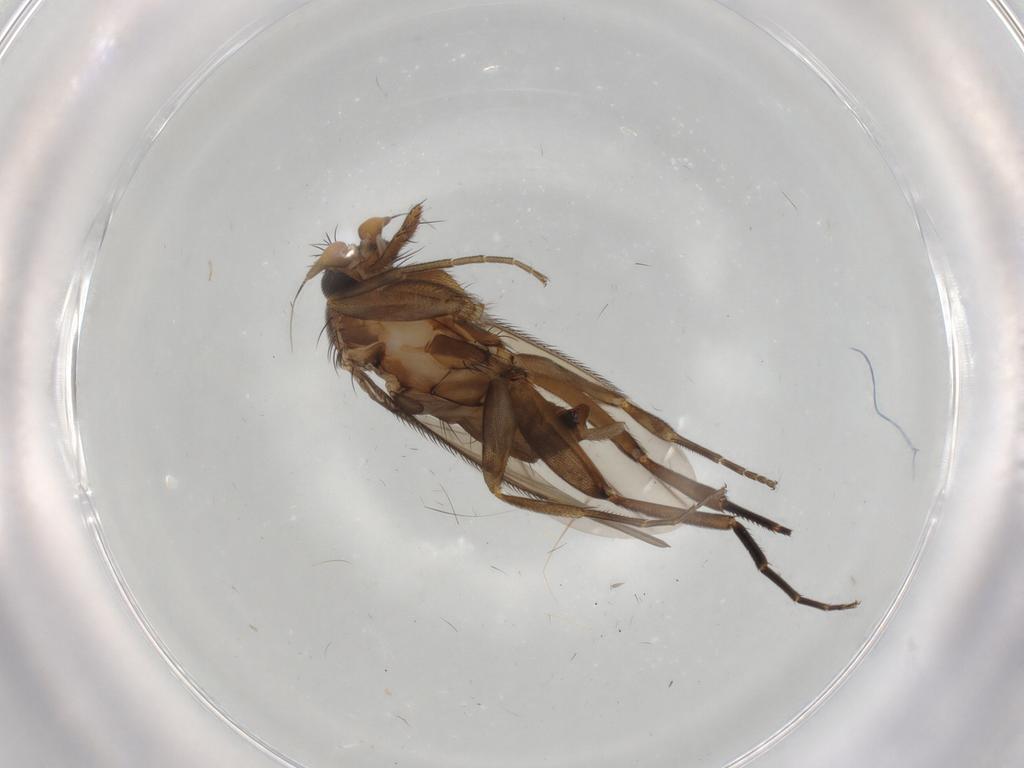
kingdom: Animalia
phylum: Arthropoda
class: Insecta
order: Diptera
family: Phoridae
